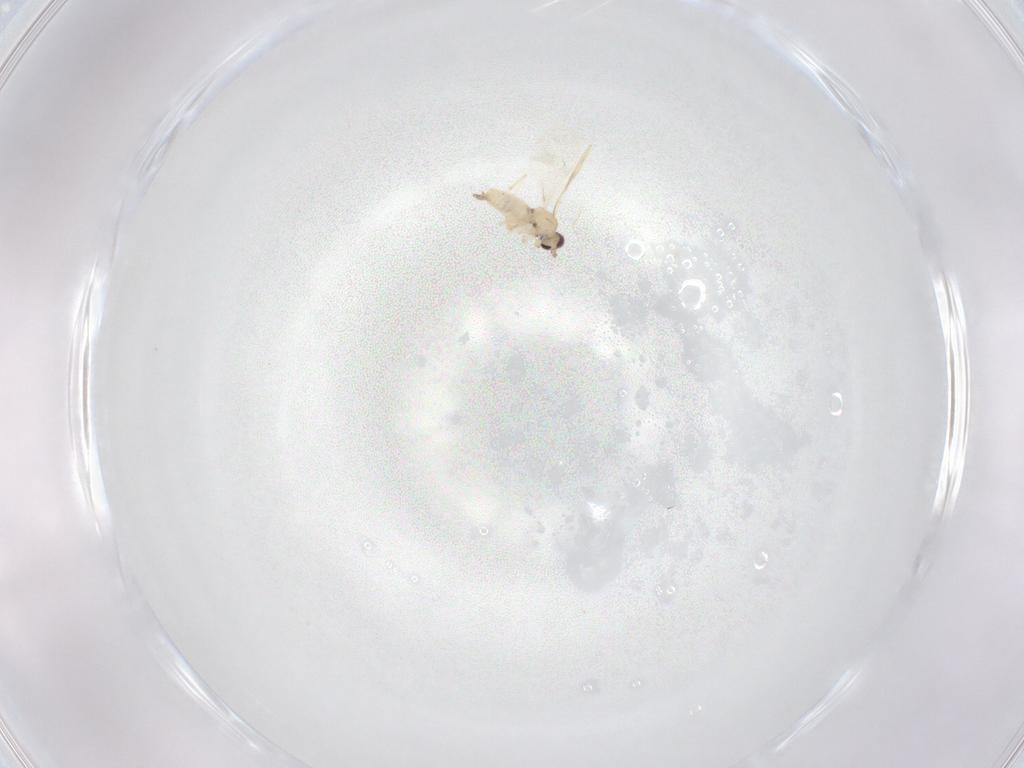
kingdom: Animalia
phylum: Arthropoda
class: Insecta
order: Diptera
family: Cecidomyiidae
